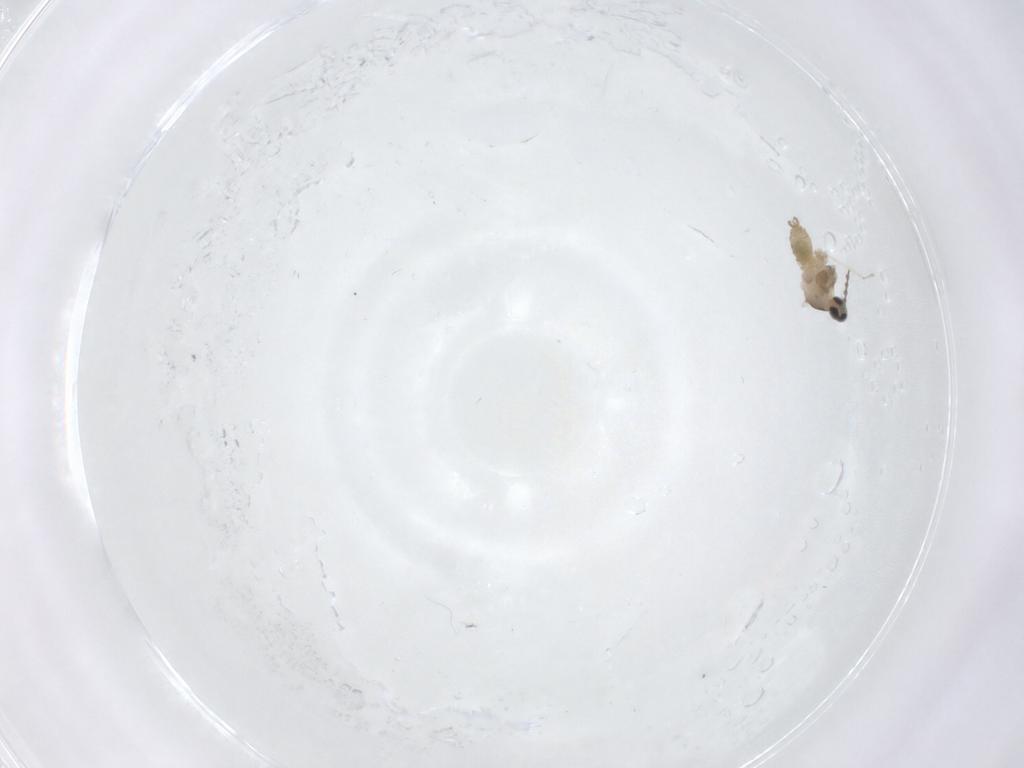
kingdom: Animalia
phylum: Arthropoda
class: Insecta
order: Diptera
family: Cecidomyiidae
